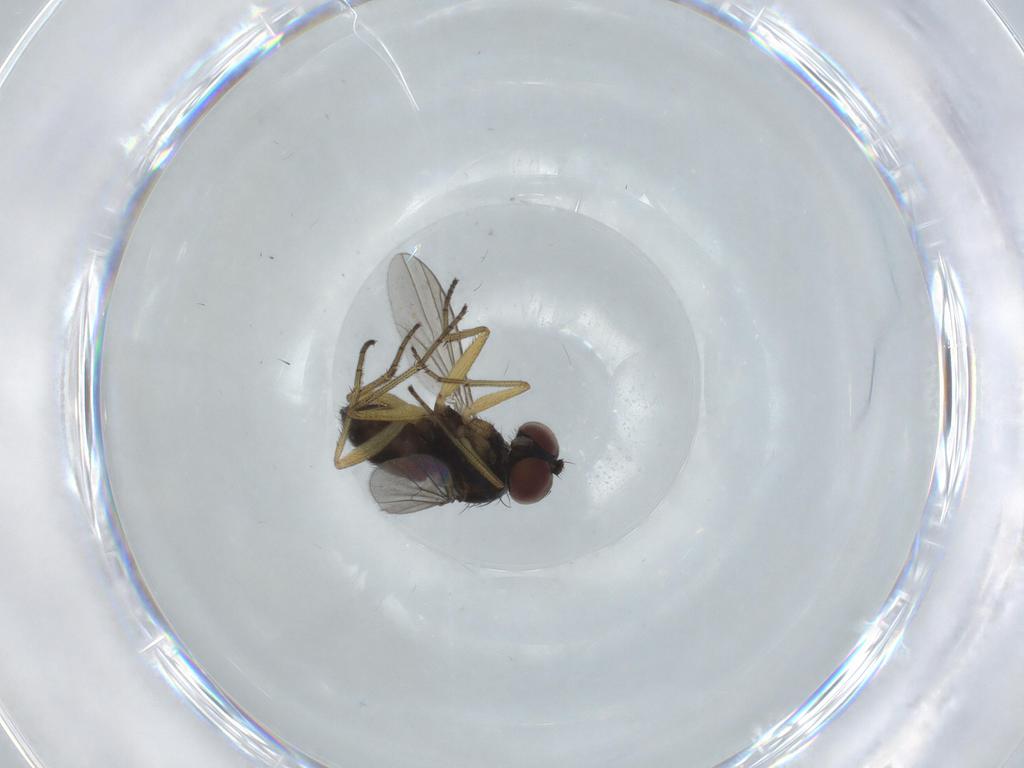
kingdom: Animalia
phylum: Arthropoda
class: Insecta
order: Diptera
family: Dolichopodidae
